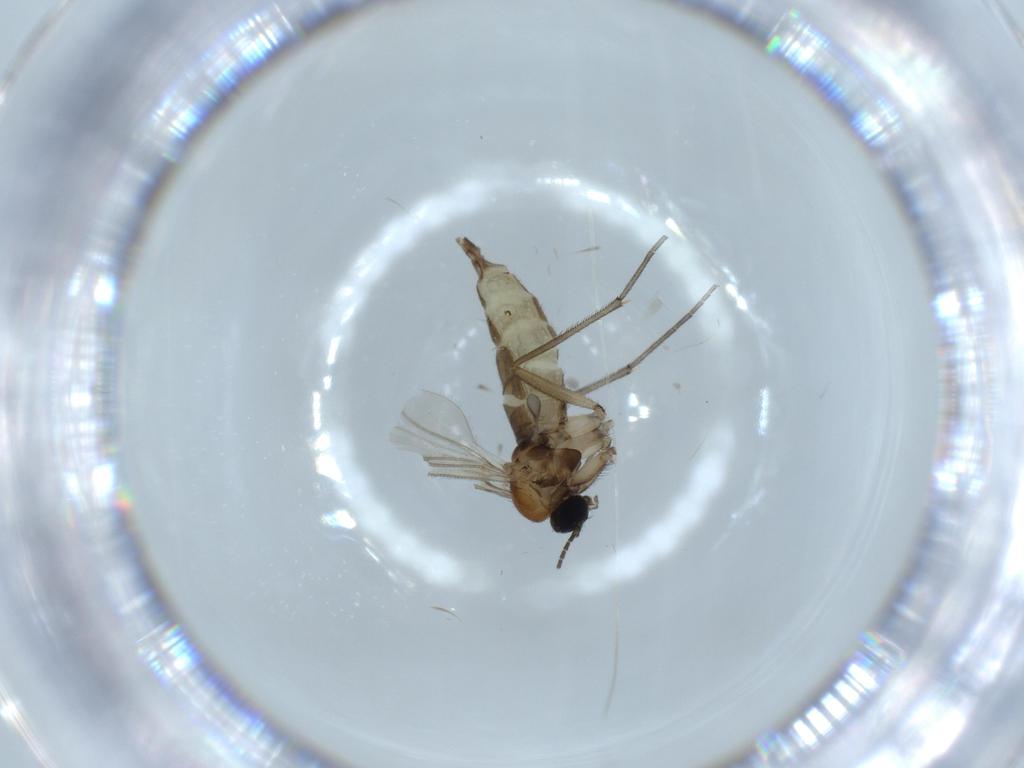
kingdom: Animalia
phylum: Arthropoda
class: Insecta
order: Diptera
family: Sciaridae
